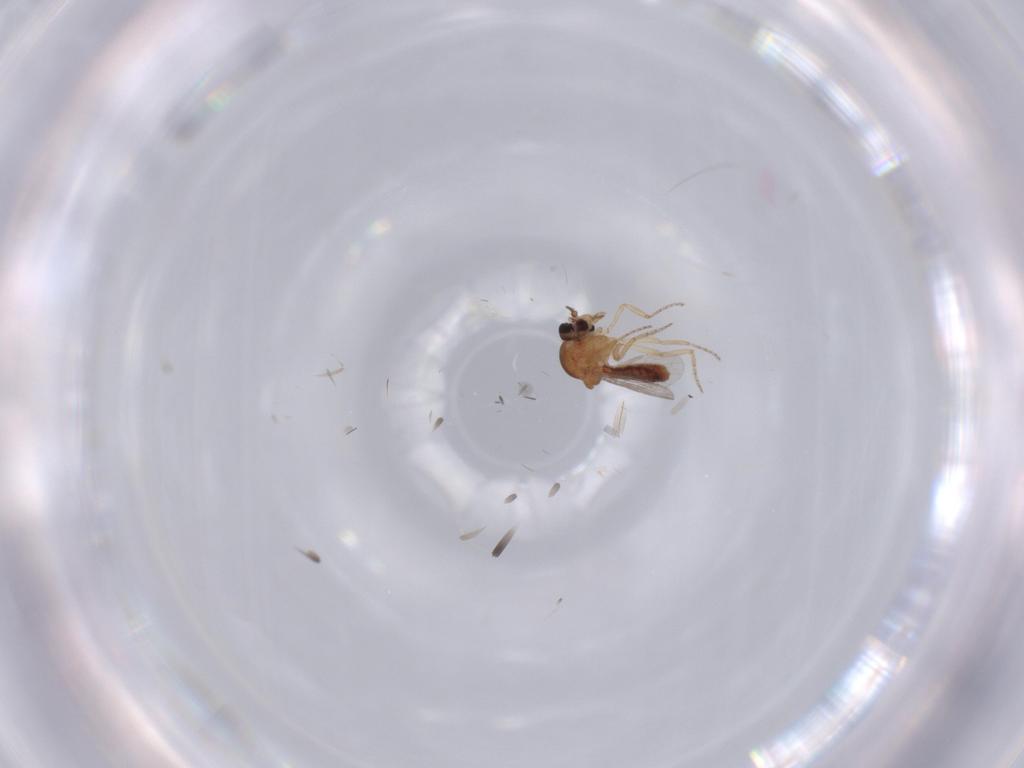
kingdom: Animalia
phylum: Arthropoda
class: Insecta
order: Diptera
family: Ceratopogonidae
